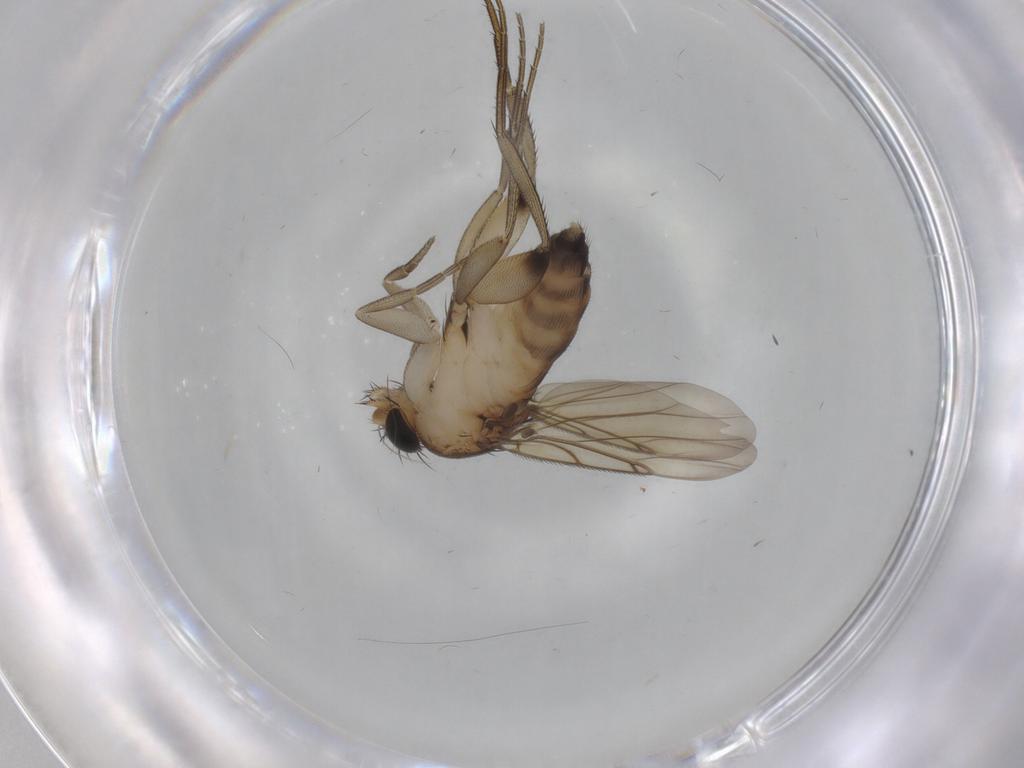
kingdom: Animalia
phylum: Arthropoda
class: Insecta
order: Diptera
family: Phoridae
